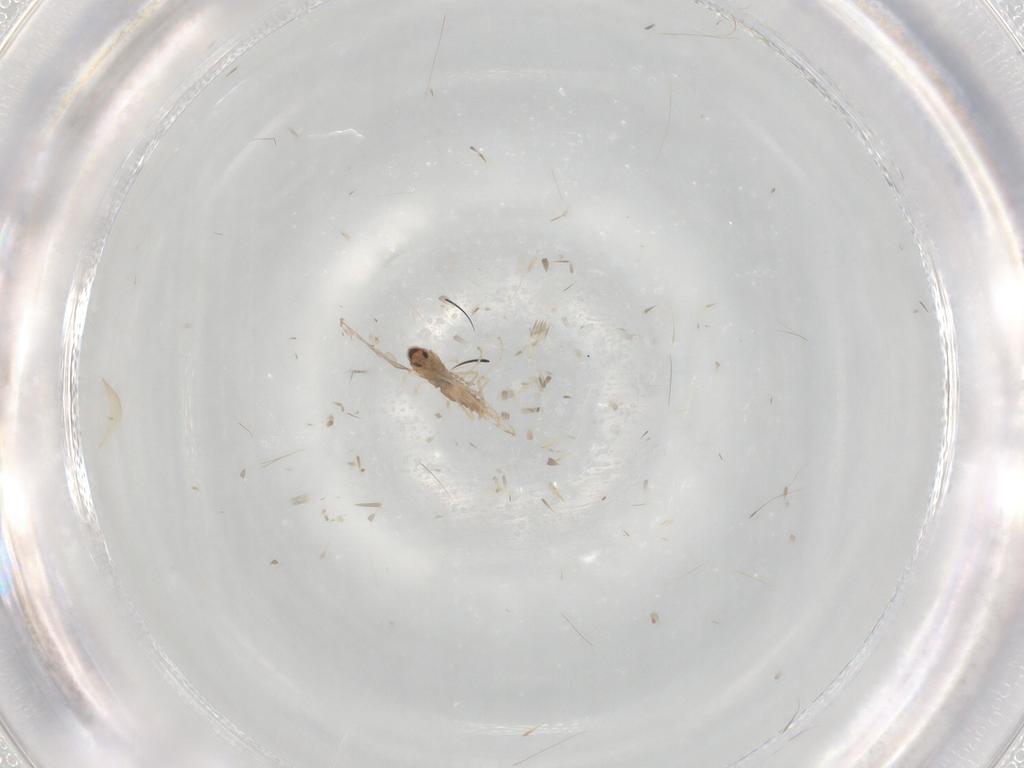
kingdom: Animalia
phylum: Arthropoda
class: Insecta
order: Diptera
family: Cecidomyiidae
